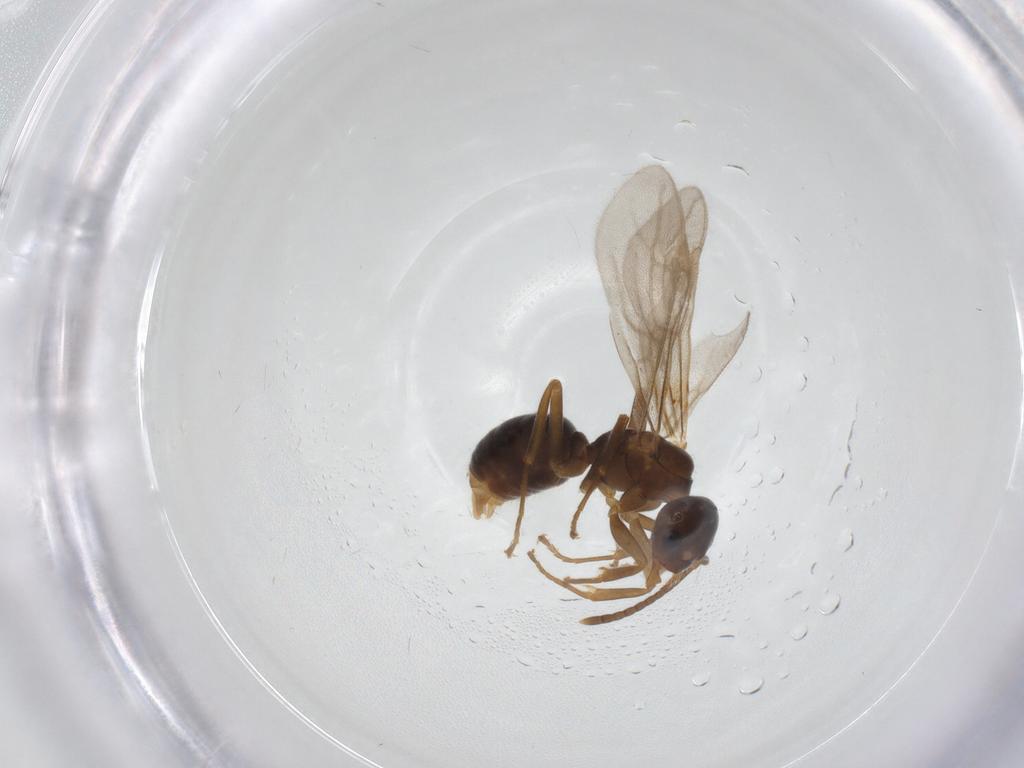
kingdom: Animalia
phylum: Arthropoda
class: Insecta
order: Hymenoptera
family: Formicidae
